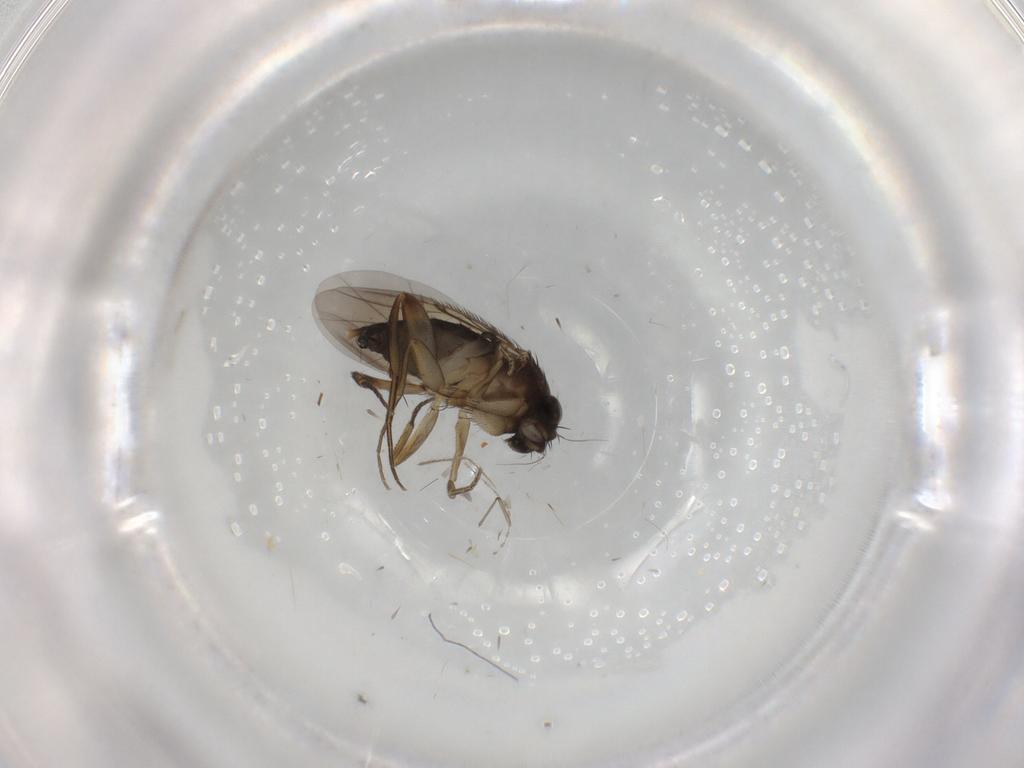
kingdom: Animalia
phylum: Arthropoda
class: Insecta
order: Diptera
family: Phoridae
